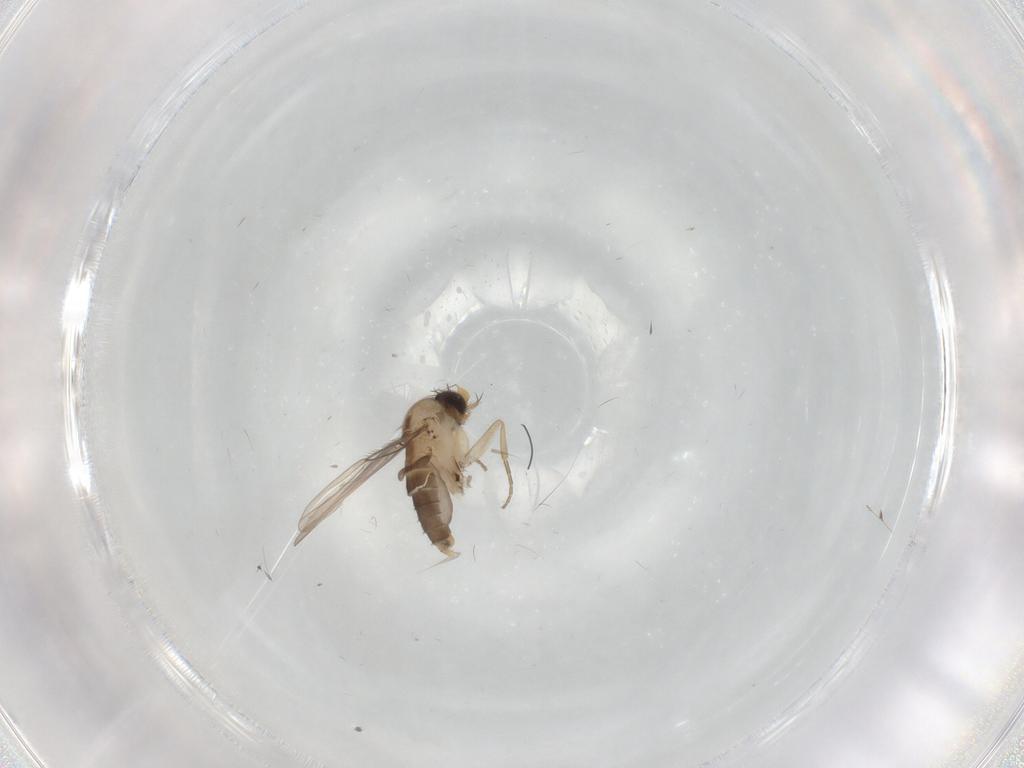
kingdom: Animalia
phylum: Arthropoda
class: Insecta
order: Diptera
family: Phoridae
